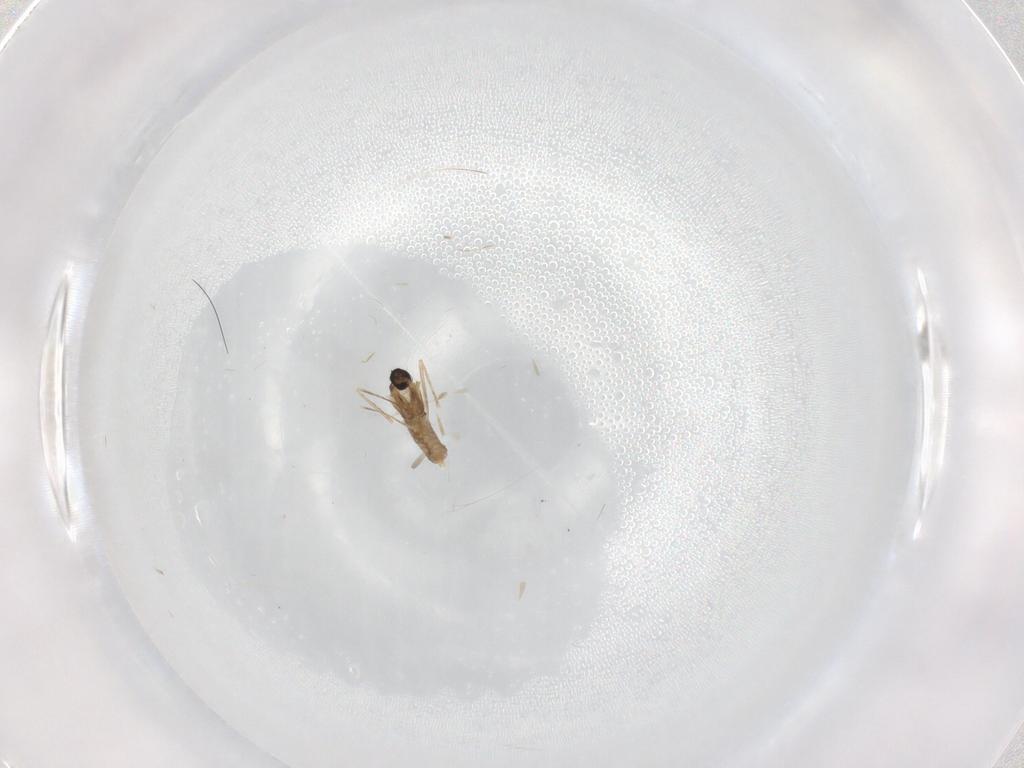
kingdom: Animalia
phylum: Arthropoda
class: Insecta
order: Diptera
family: Cecidomyiidae
